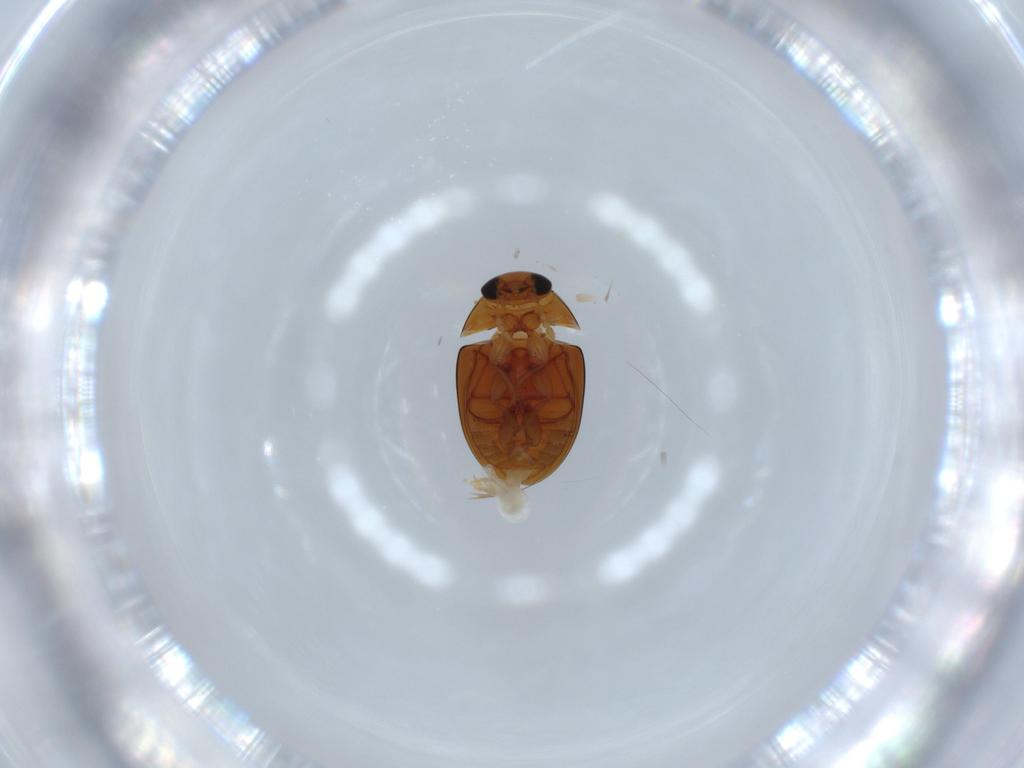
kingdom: Animalia
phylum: Arthropoda
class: Insecta
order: Coleoptera
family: Phalacridae
